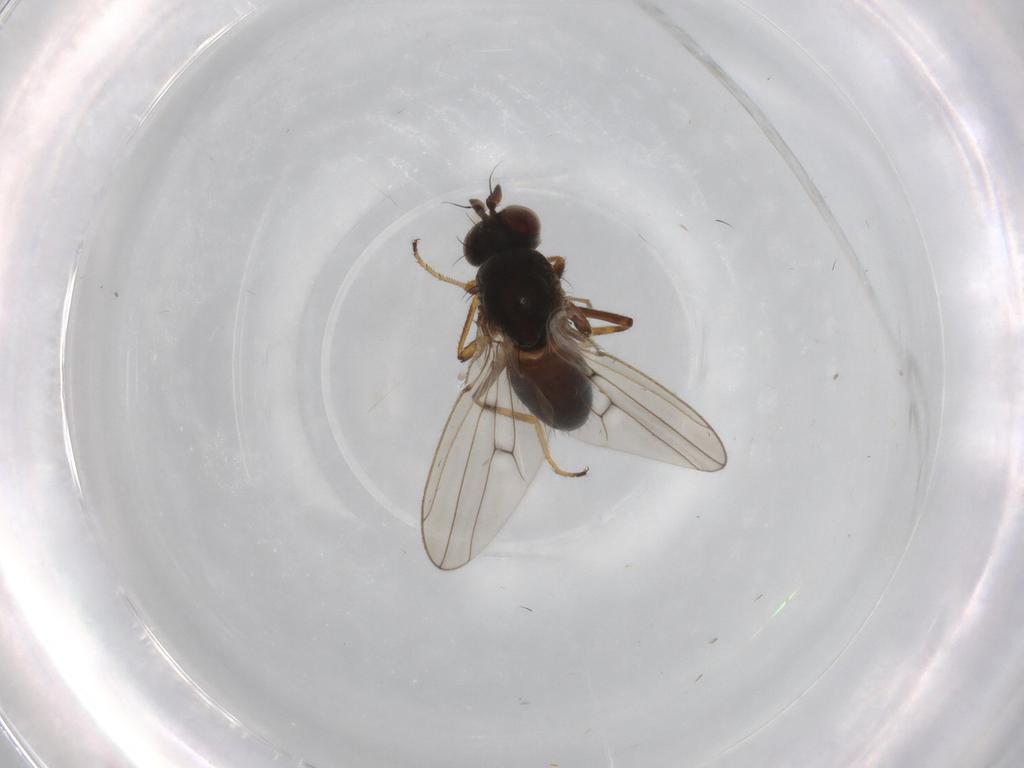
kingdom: Animalia
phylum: Arthropoda
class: Insecta
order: Diptera
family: Ephydridae
